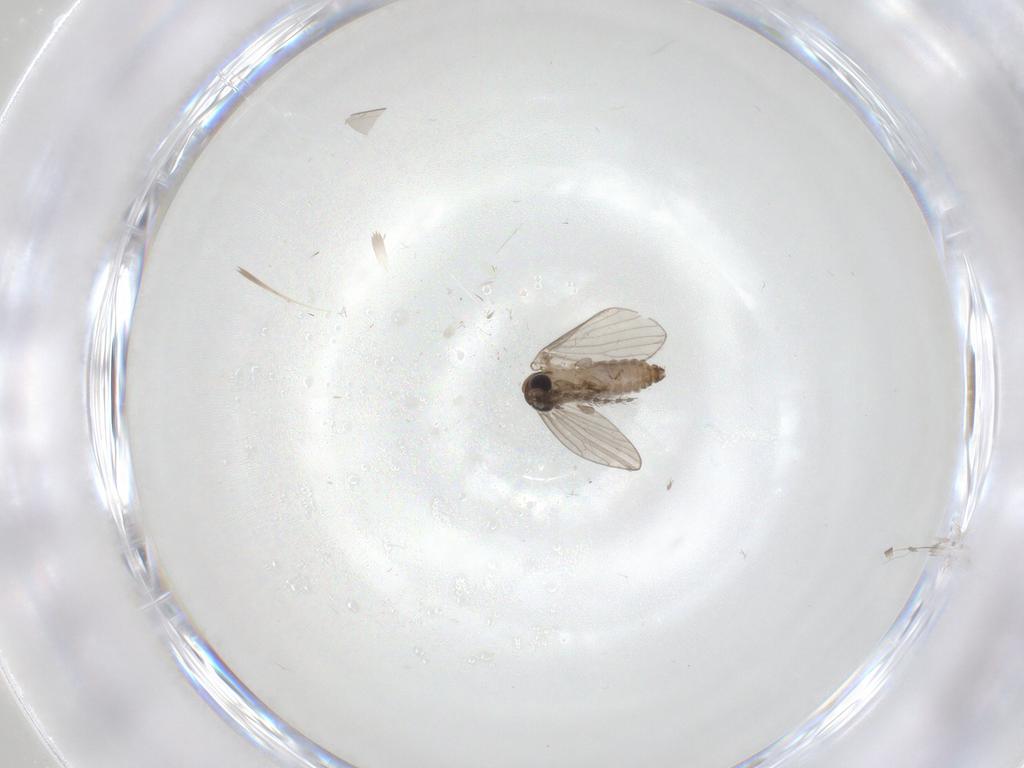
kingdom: Animalia
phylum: Arthropoda
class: Insecta
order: Diptera
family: Psychodidae
